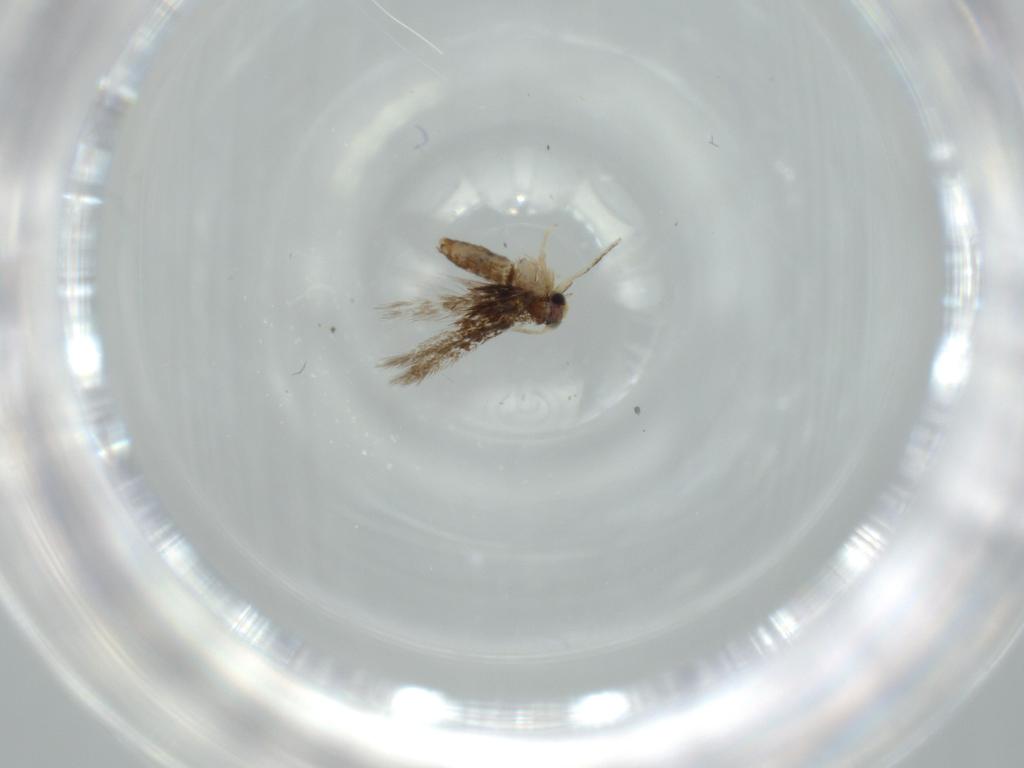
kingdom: Animalia
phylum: Arthropoda
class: Insecta
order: Lepidoptera
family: Nepticulidae
